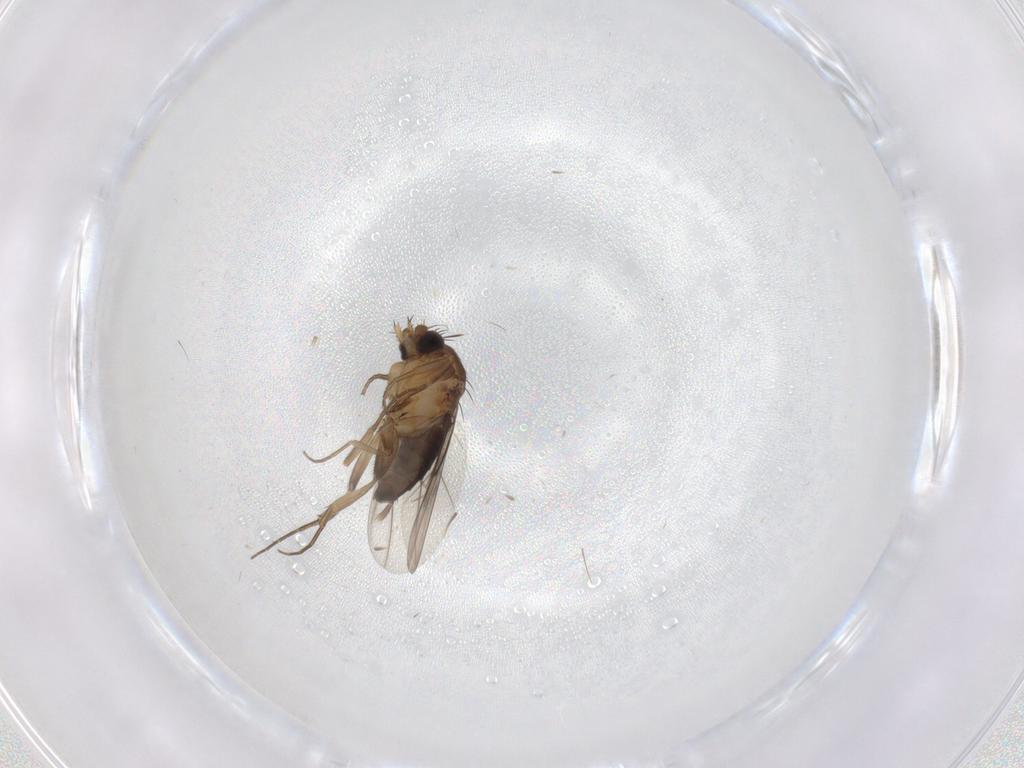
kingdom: Animalia
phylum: Arthropoda
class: Insecta
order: Diptera
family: Phoridae
